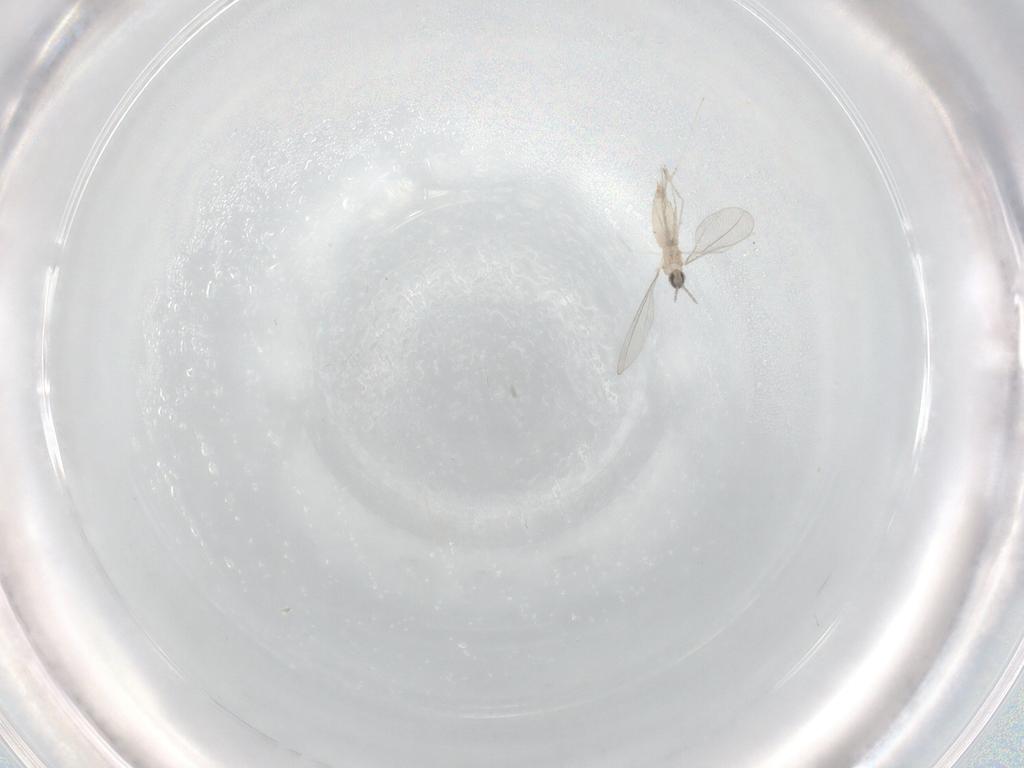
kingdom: Animalia
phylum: Arthropoda
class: Insecta
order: Diptera
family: Cecidomyiidae
